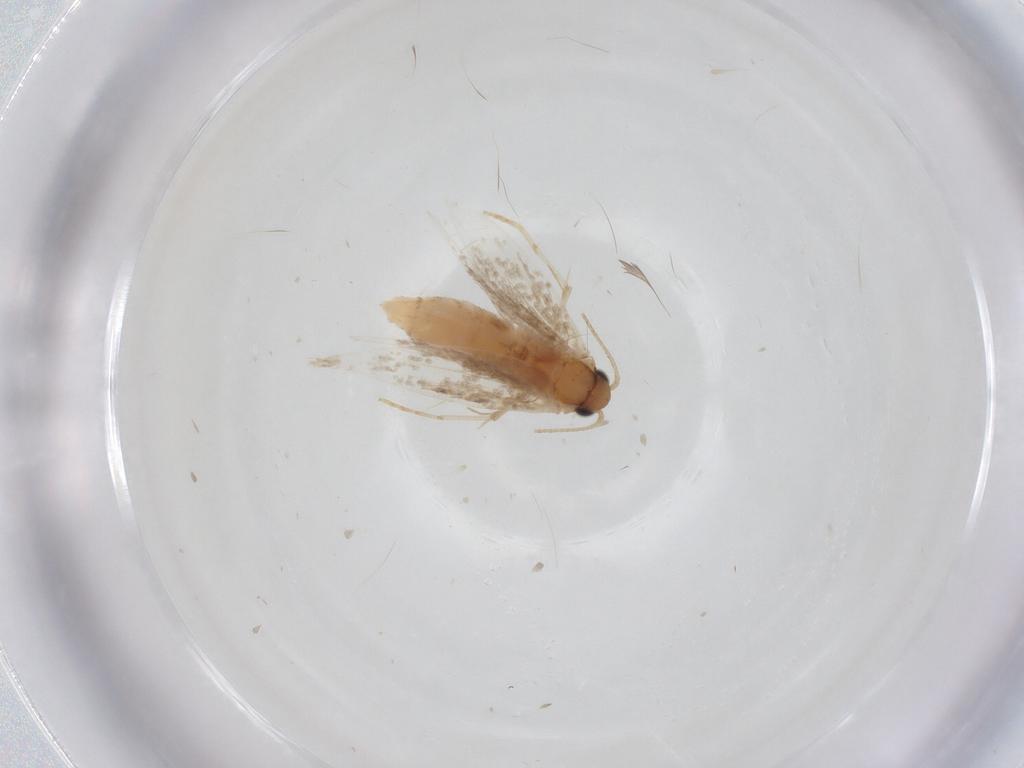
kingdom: Animalia
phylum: Arthropoda
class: Insecta
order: Lepidoptera
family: Meessiidae
